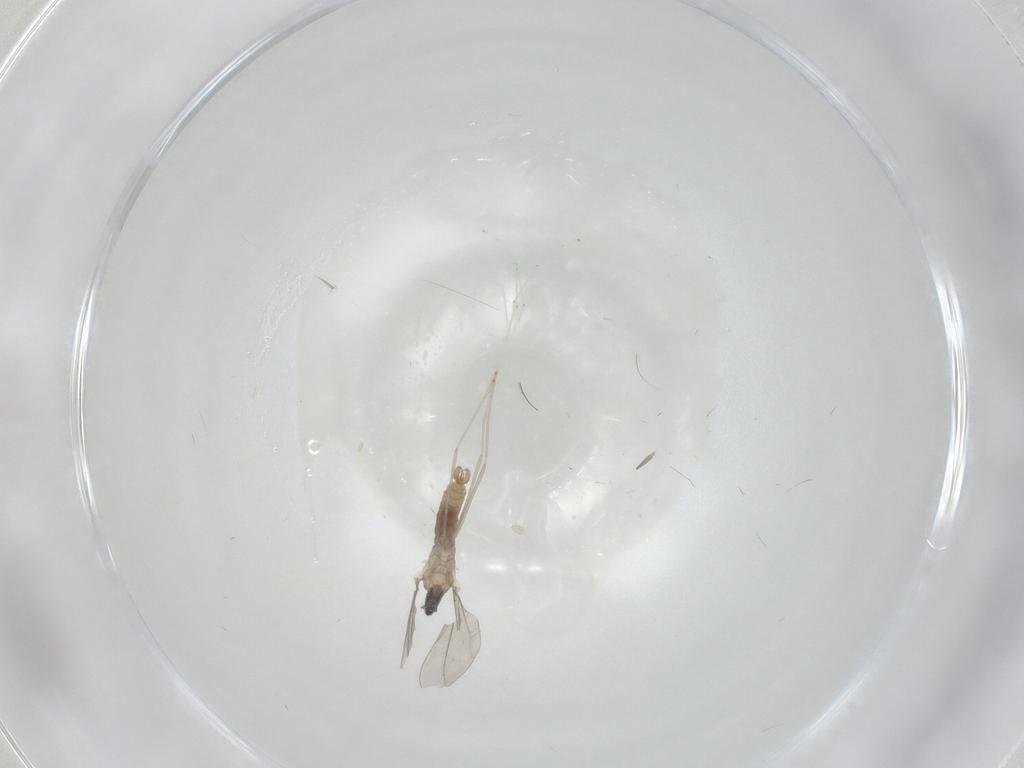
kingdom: Animalia
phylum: Arthropoda
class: Insecta
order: Diptera
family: Cecidomyiidae
